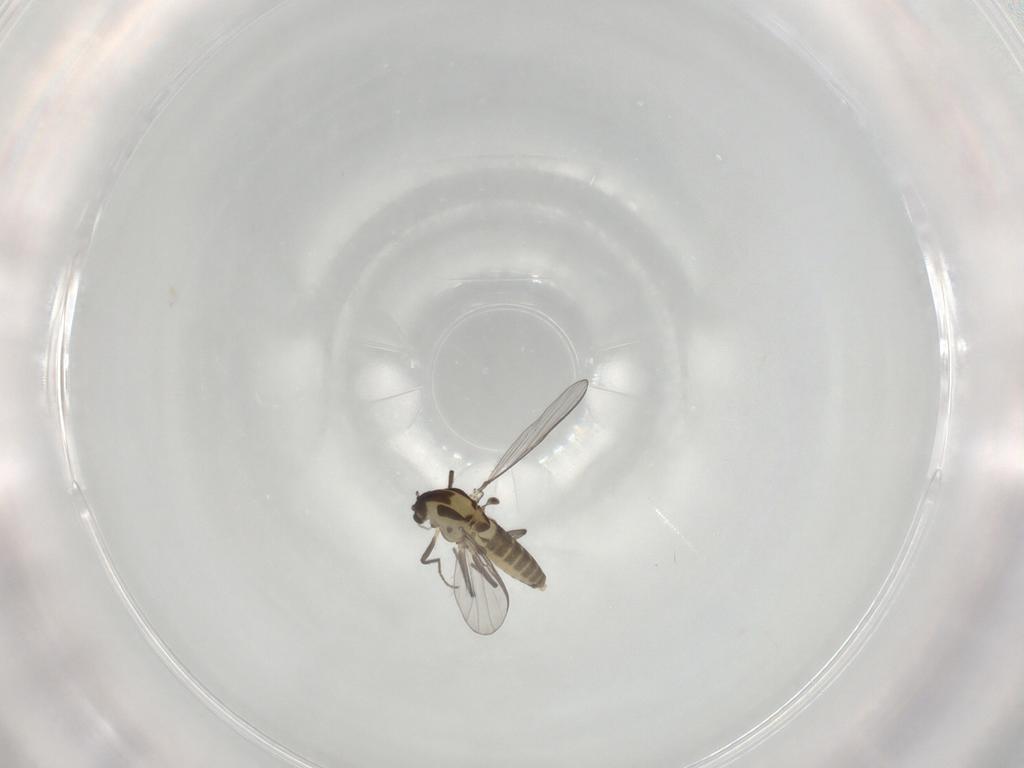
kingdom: Animalia
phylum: Arthropoda
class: Insecta
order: Diptera
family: Chironomidae
